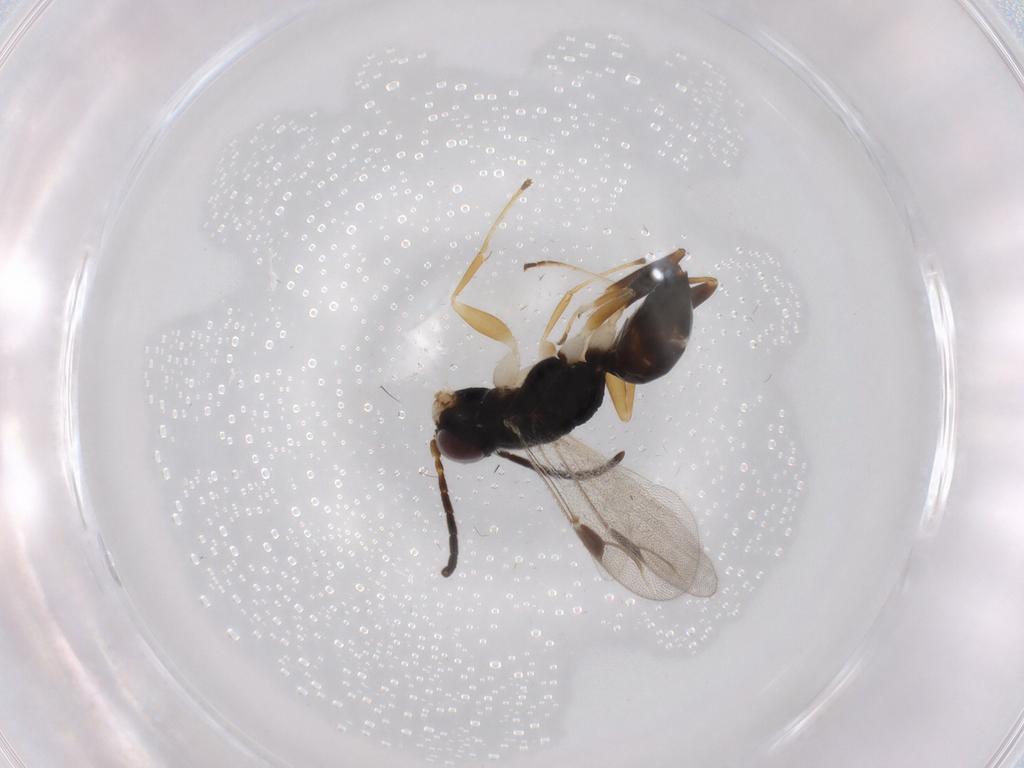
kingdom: Animalia
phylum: Arthropoda
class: Insecta
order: Hymenoptera
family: Dryinidae
